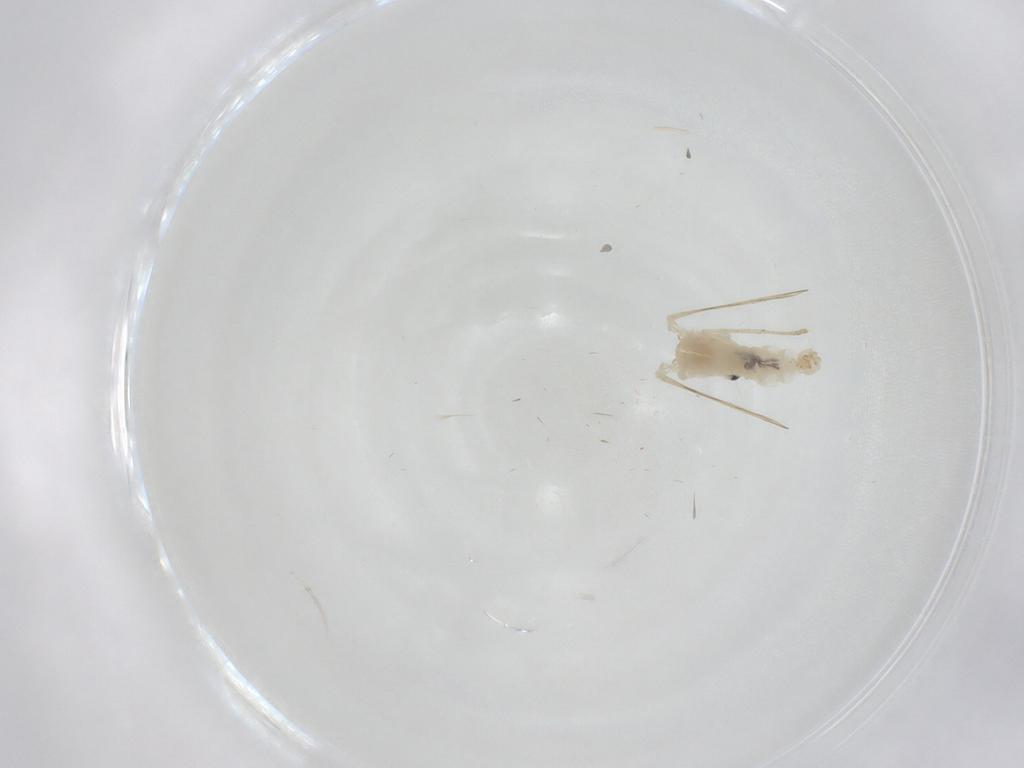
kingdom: Animalia
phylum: Arthropoda
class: Insecta
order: Diptera
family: Psychodidae
